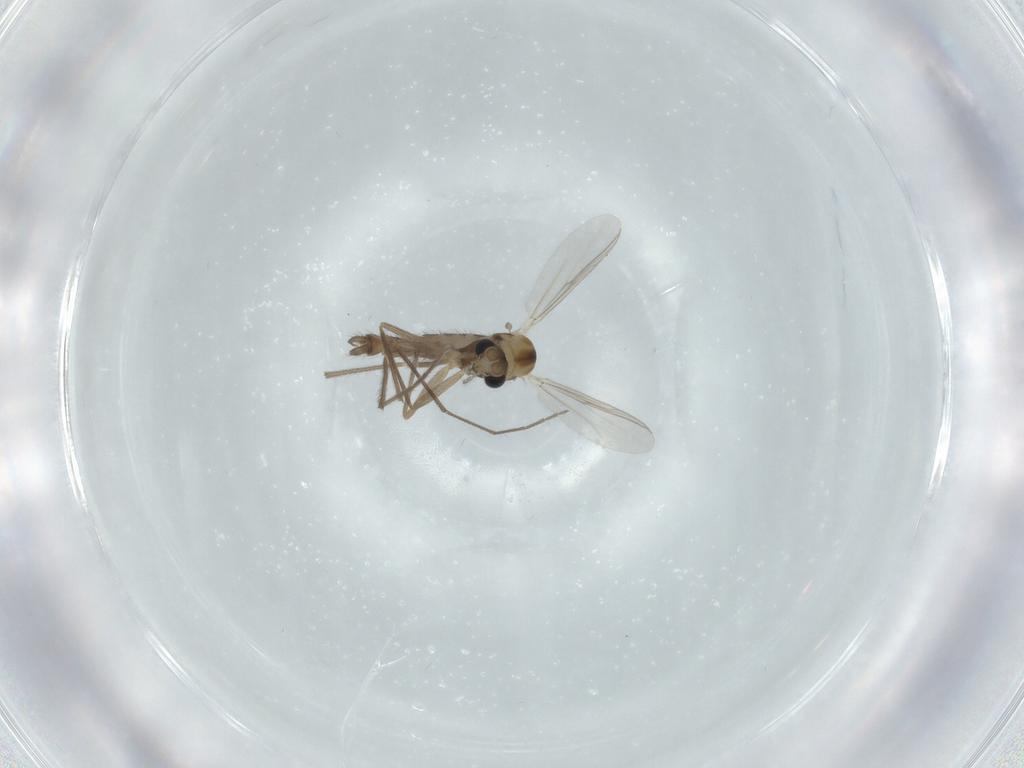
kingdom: Animalia
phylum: Arthropoda
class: Insecta
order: Diptera
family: Chironomidae
